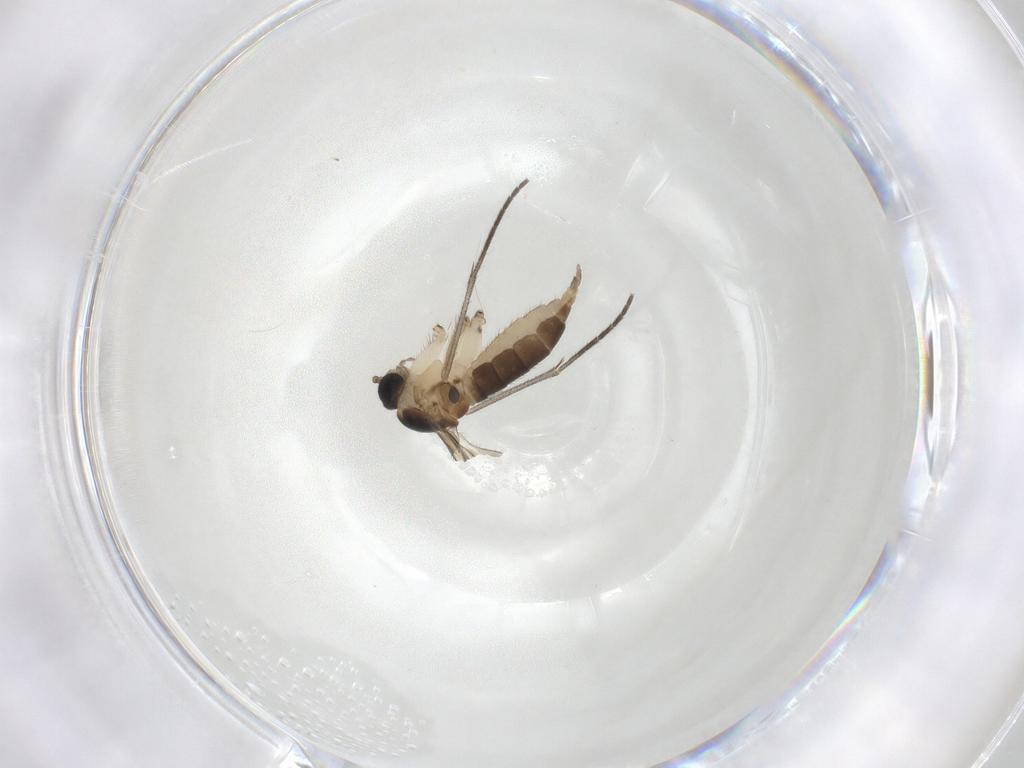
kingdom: Animalia
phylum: Arthropoda
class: Insecta
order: Diptera
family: Sciaridae
